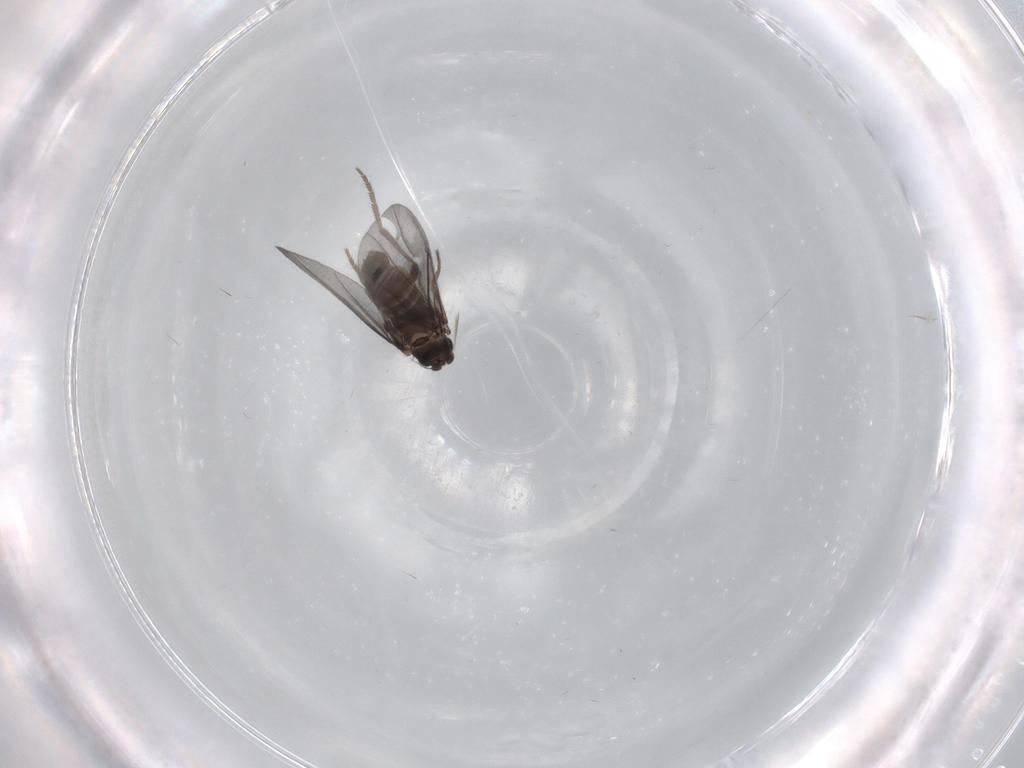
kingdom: Animalia
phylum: Arthropoda
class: Insecta
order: Diptera
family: Phoridae
